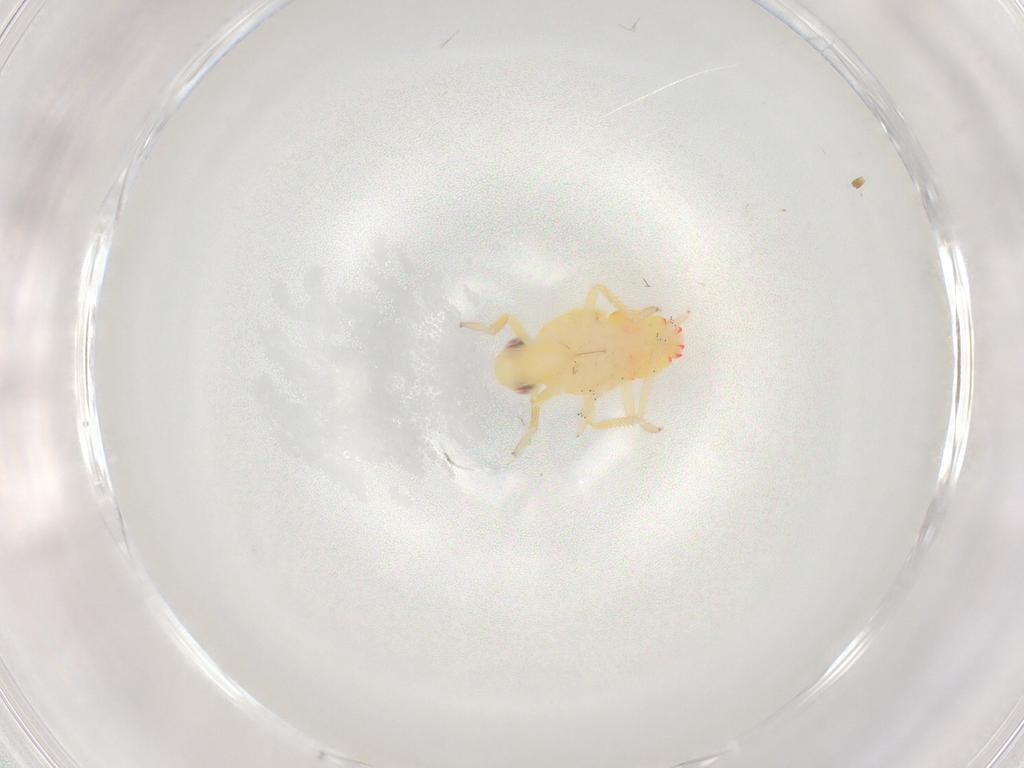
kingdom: Animalia
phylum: Arthropoda
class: Insecta
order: Hemiptera
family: Tropiduchidae
